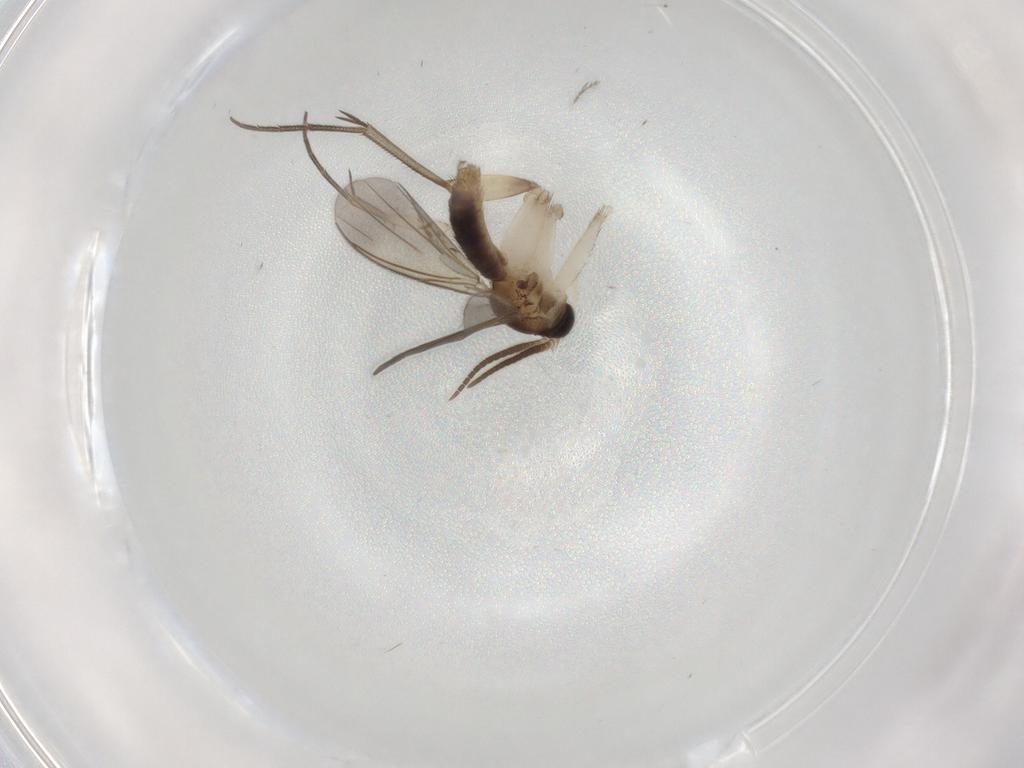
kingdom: Animalia
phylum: Arthropoda
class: Insecta
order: Diptera
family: Mycetophilidae
